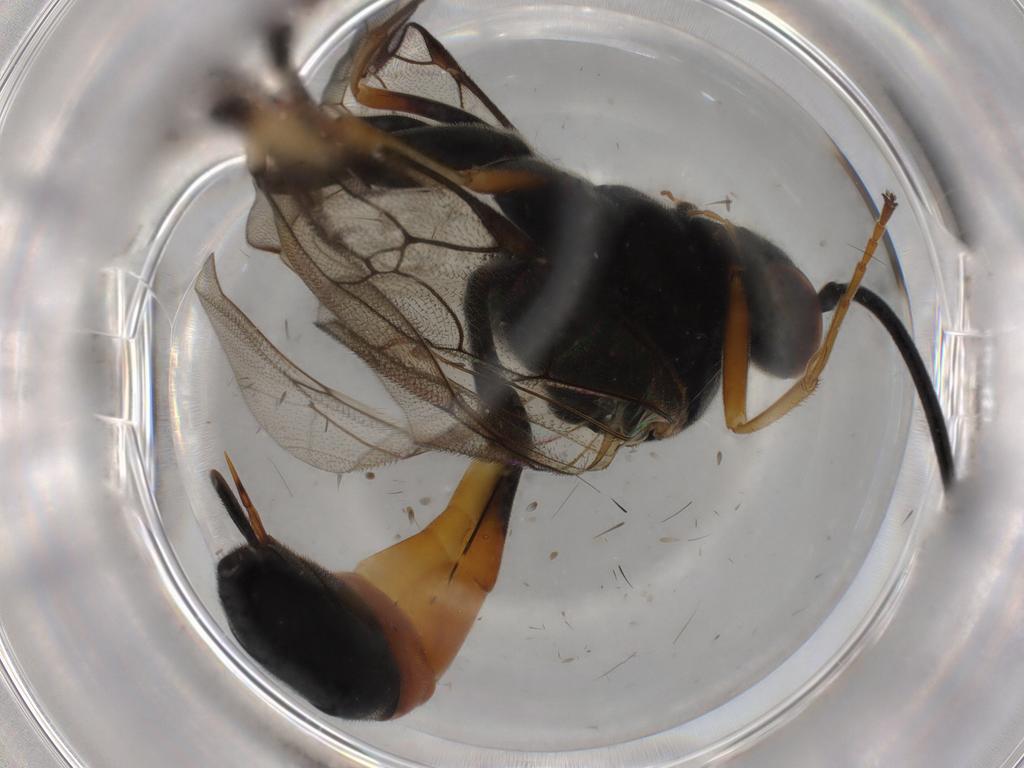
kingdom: Animalia
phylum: Arthropoda
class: Insecta
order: Hymenoptera
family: Ichneumonidae
